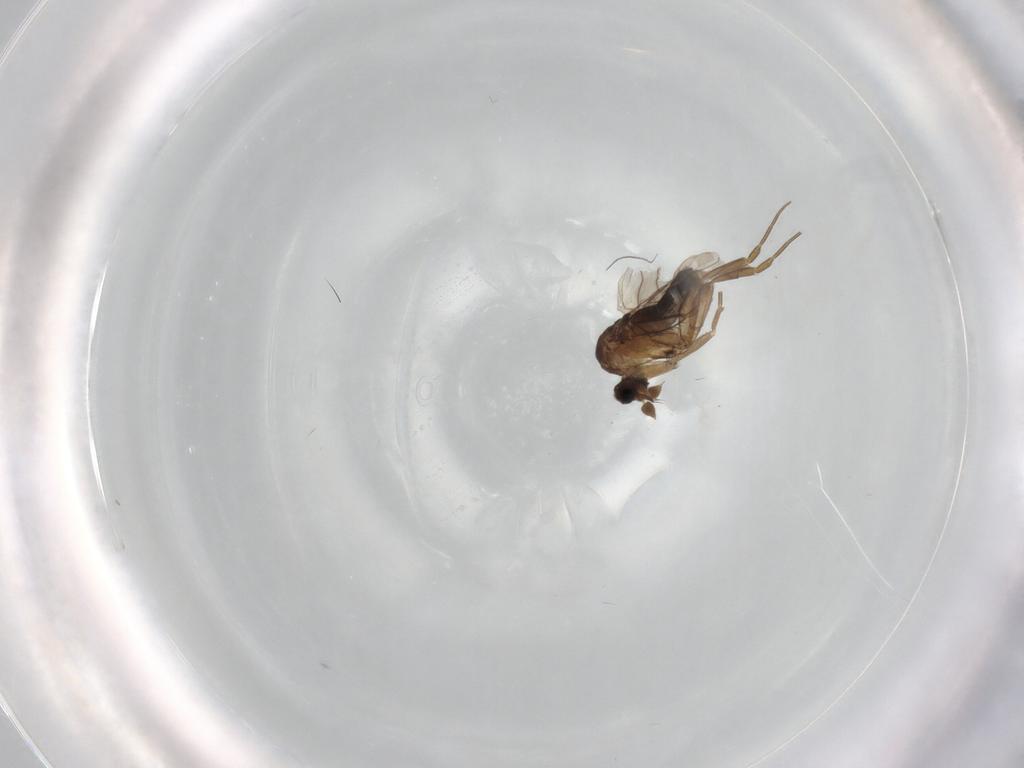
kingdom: Animalia
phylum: Arthropoda
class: Insecta
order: Diptera
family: Phoridae
